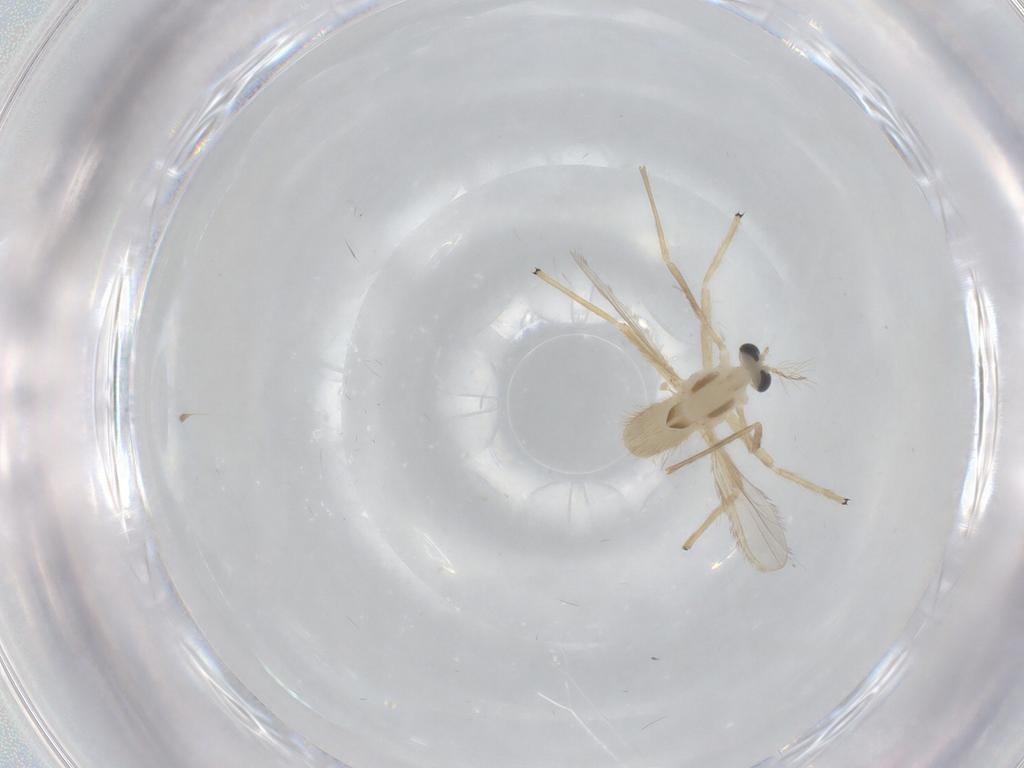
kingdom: Animalia
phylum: Arthropoda
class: Insecta
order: Diptera
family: Chironomidae
